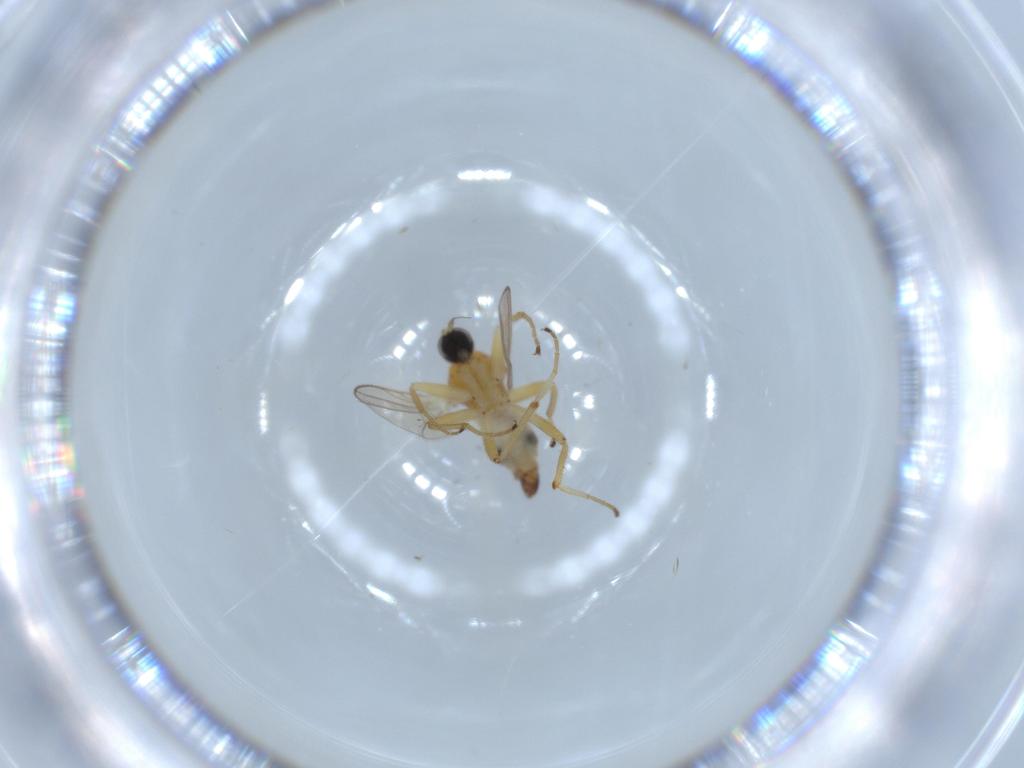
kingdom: Animalia
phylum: Arthropoda
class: Insecta
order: Diptera
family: Hybotidae
